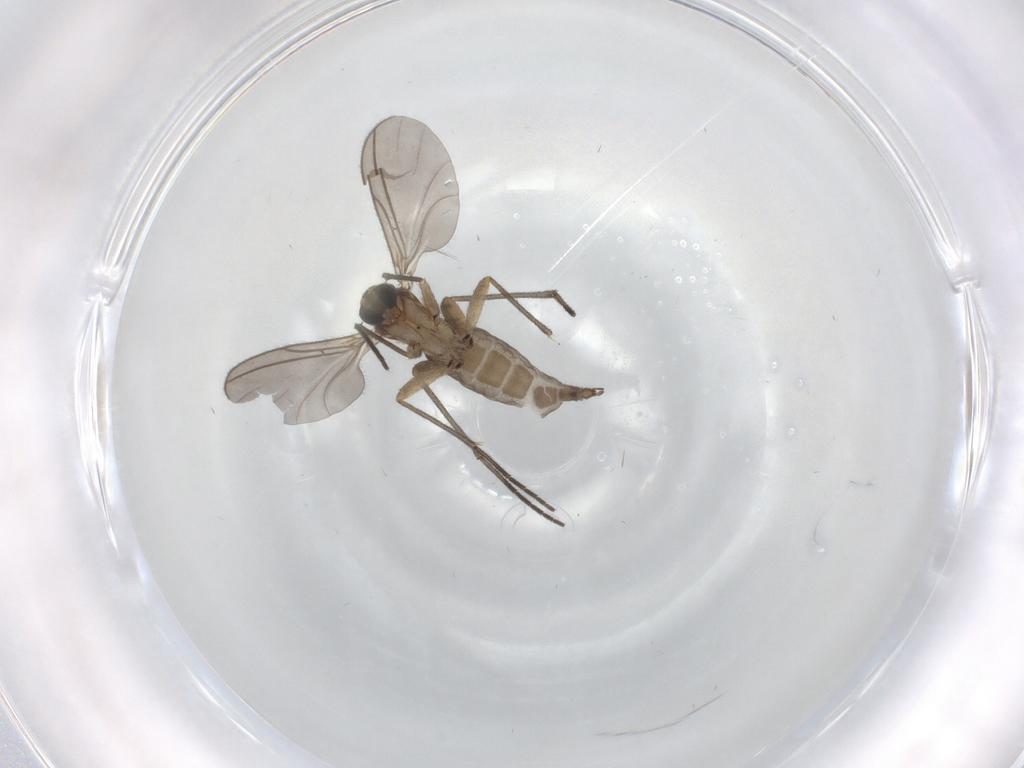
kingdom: Animalia
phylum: Arthropoda
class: Insecta
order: Diptera
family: Sciaridae
